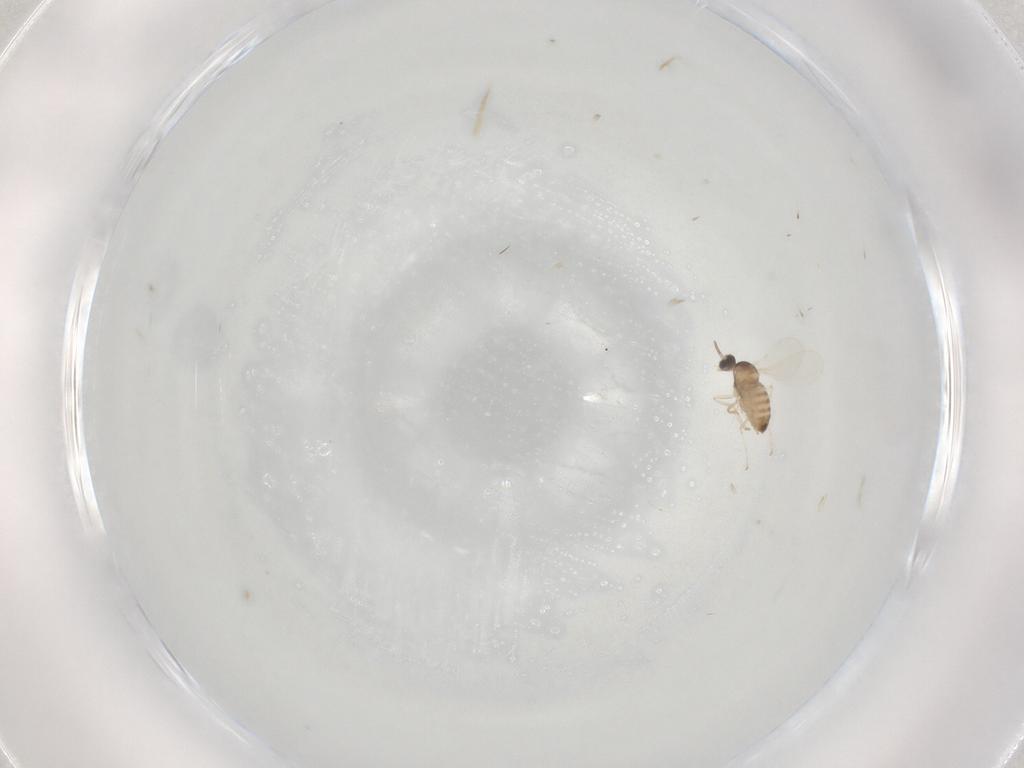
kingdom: Animalia
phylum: Arthropoda
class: Insecta
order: Diptera
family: Cecidomyiidae
